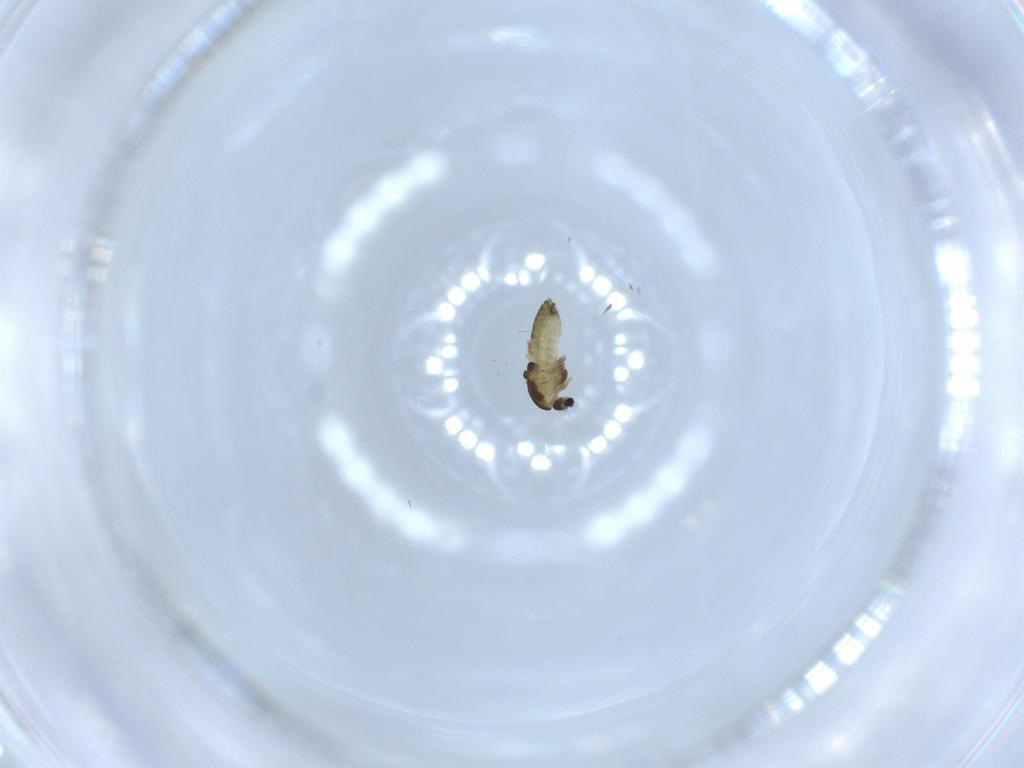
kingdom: Animalia
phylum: Arthropoda
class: Insecta
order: Diptera
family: Chironomidae
